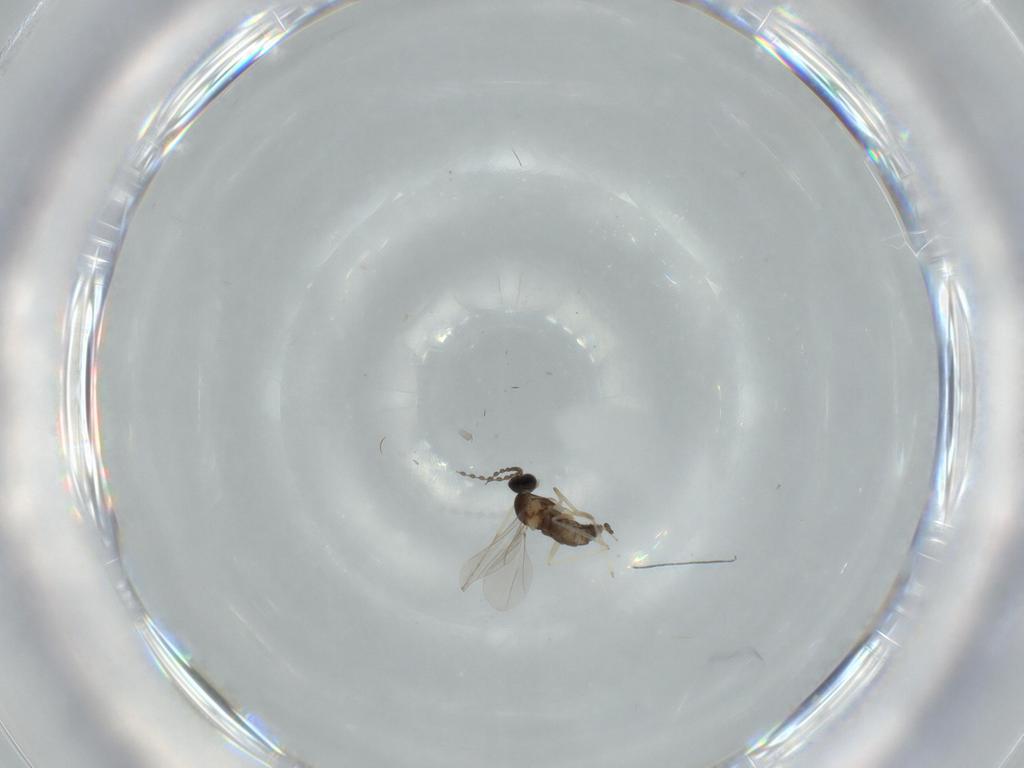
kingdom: Animalia
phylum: Arthropoda
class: Insecta
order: Diptera
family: Cecidomyiidae
